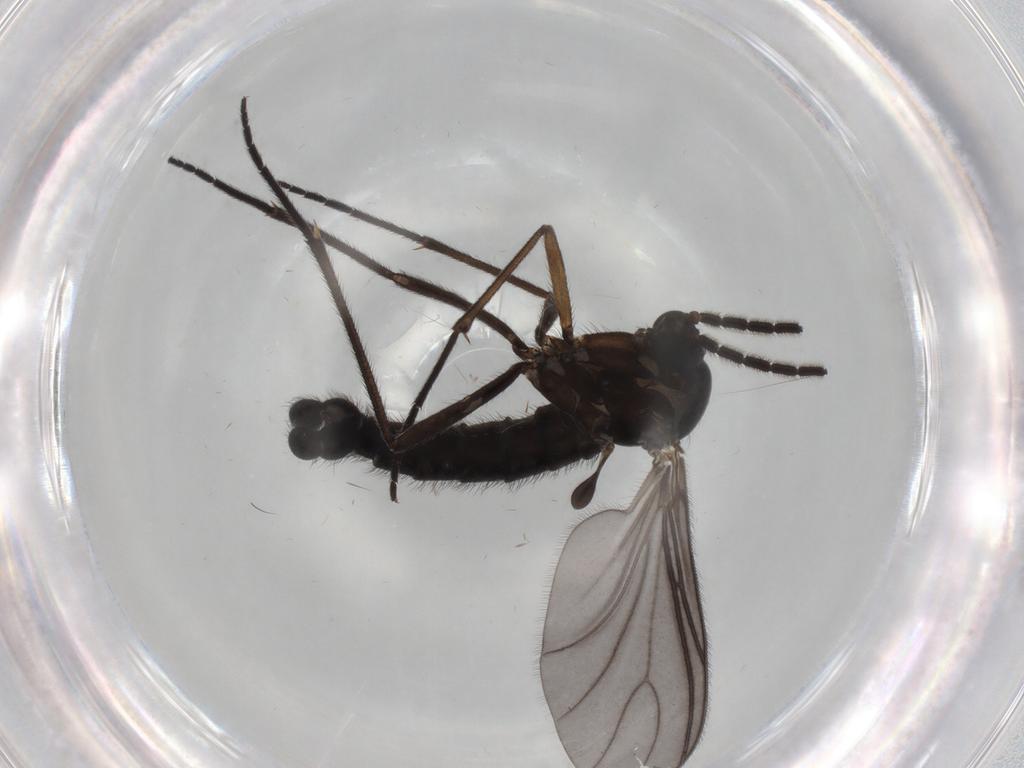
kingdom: Animalia
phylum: Arthropoda
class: Insecta
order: Diptera
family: Sciaridae
